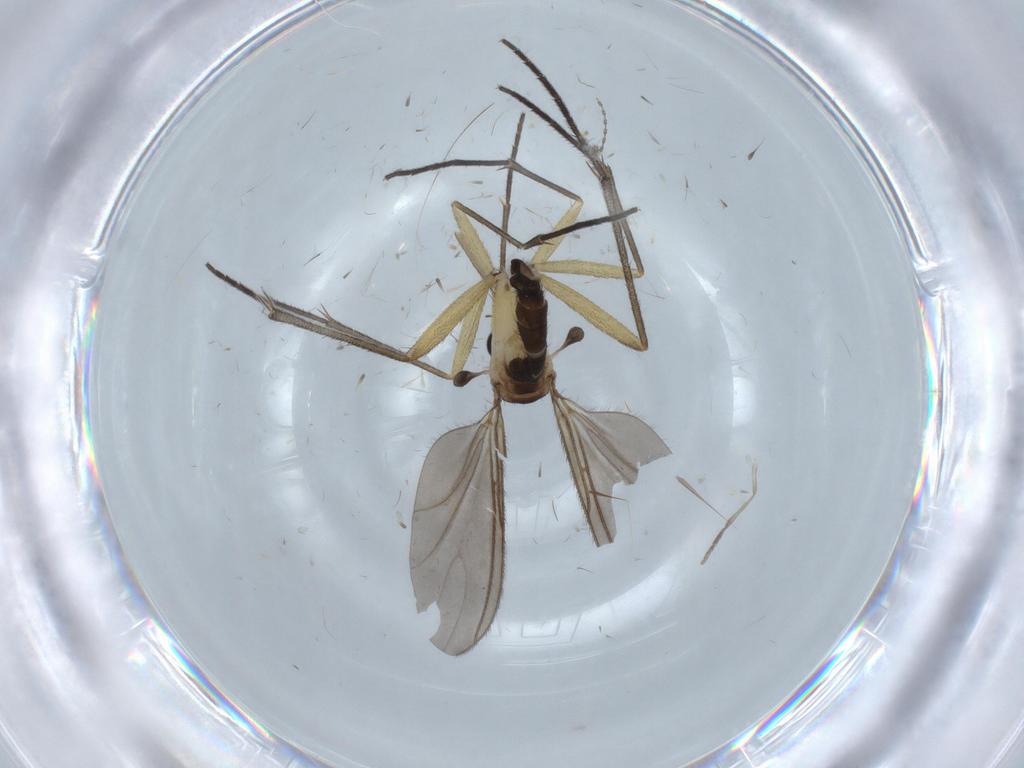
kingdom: Animalia
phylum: Arthropoda
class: Insecta
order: Diptera
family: Sciaridae
